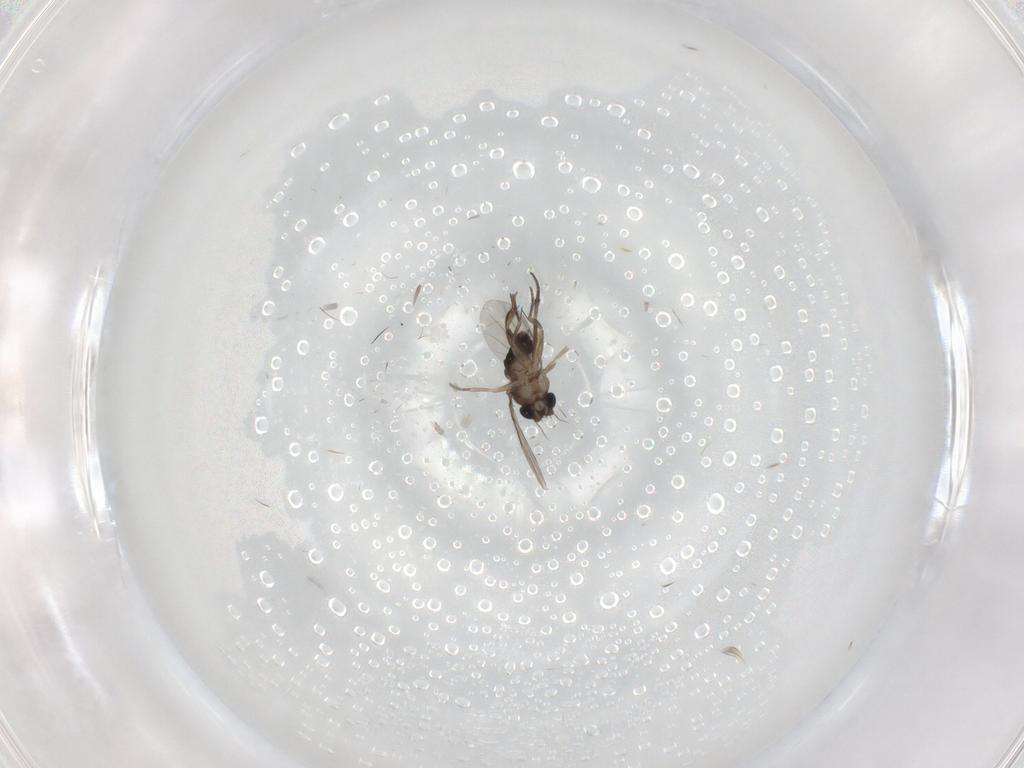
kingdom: Animalia
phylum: Arthropoda
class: Insecta
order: Diptera
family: Phoridae
